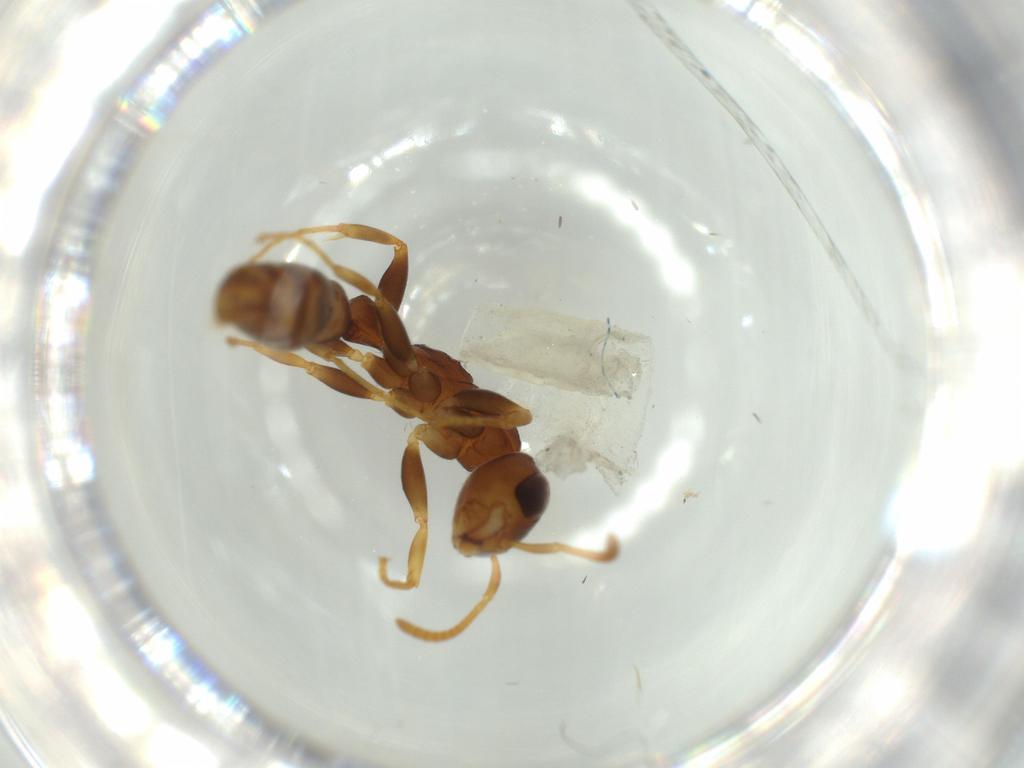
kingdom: Animalia
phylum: Arthropoda
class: Insecta
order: Hymenoptera
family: Formicidae
